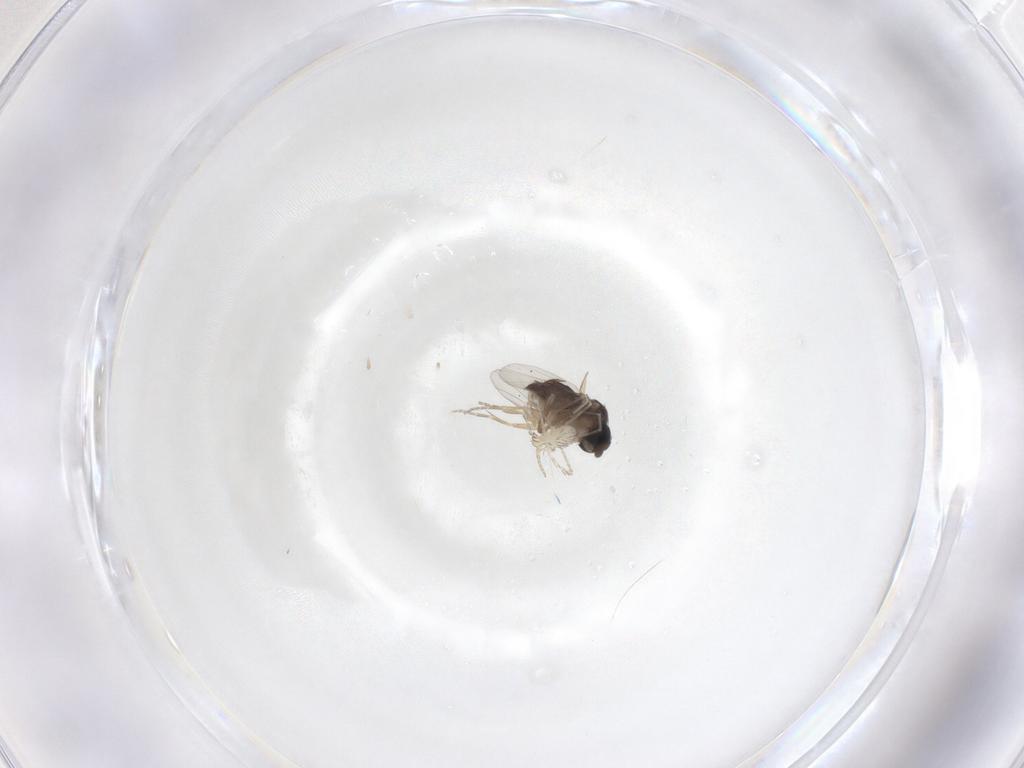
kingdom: Animalia
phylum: Arthropoda
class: Insecta
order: Diptera
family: Phoridae
